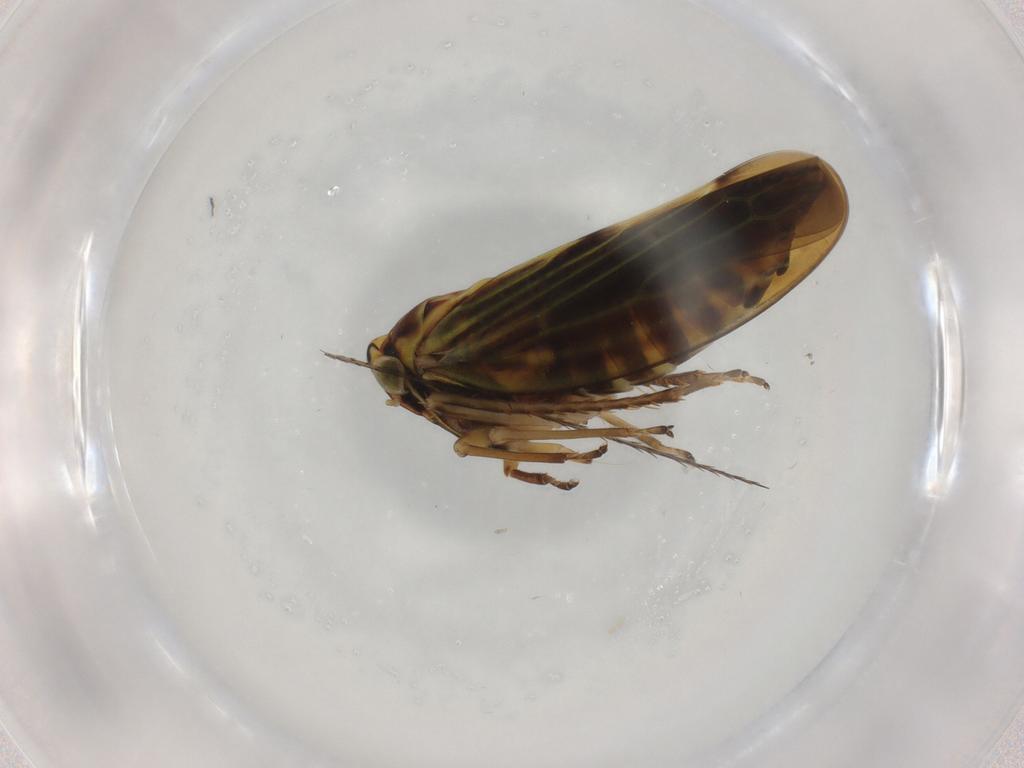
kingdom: Animalia
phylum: Arthropoda
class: Insecta
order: Hemiptera
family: Cicadellidae
